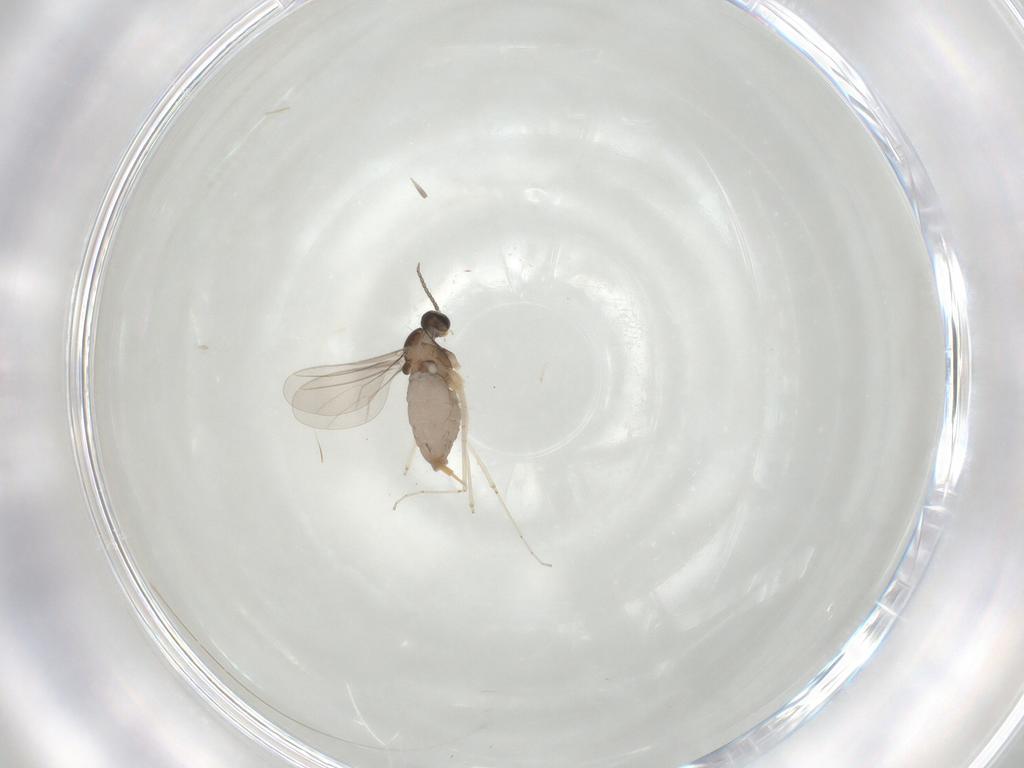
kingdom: Animalia
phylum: Arthropoda
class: Insecta
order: Diptera
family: Cecidomyiidae
